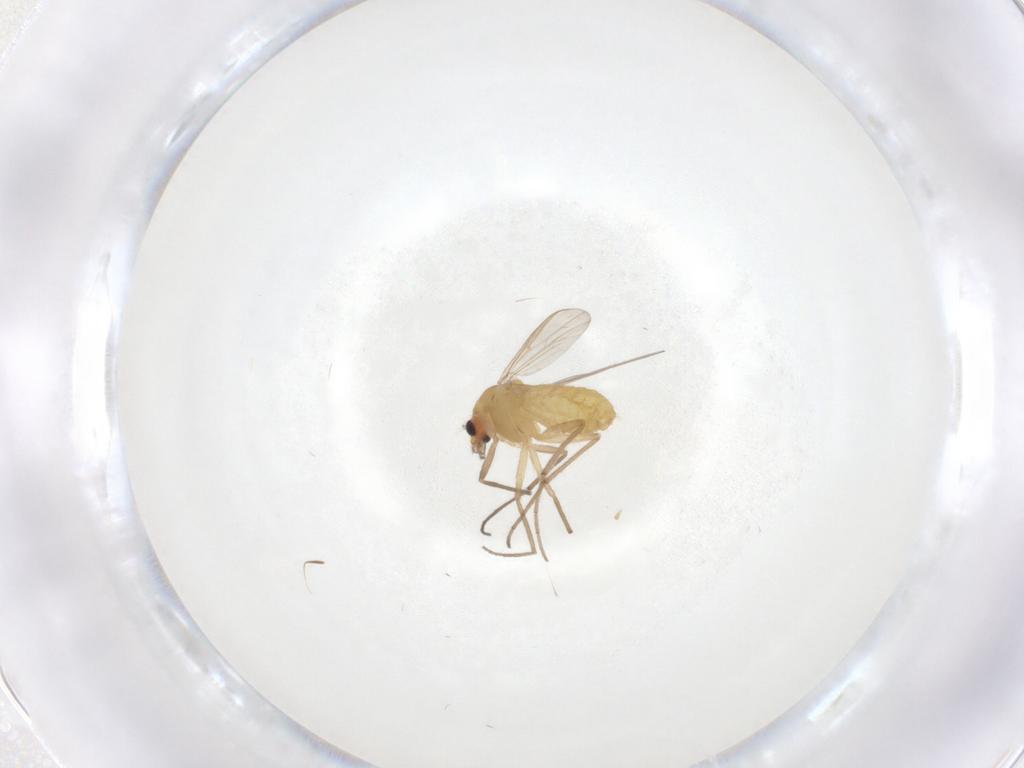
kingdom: Animalia
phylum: Arthropoda
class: Insecta
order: Diptera
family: Chironomidae
